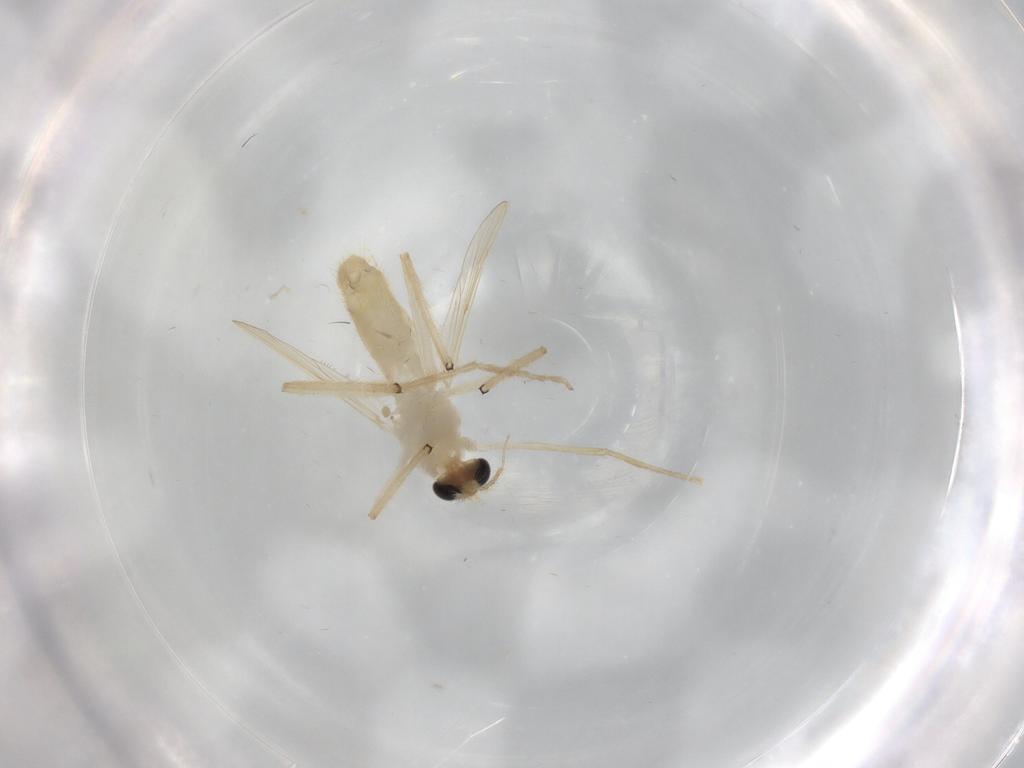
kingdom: Animalia
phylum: Arthropoda
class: Insecta
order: Diptera
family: Chironomidae
